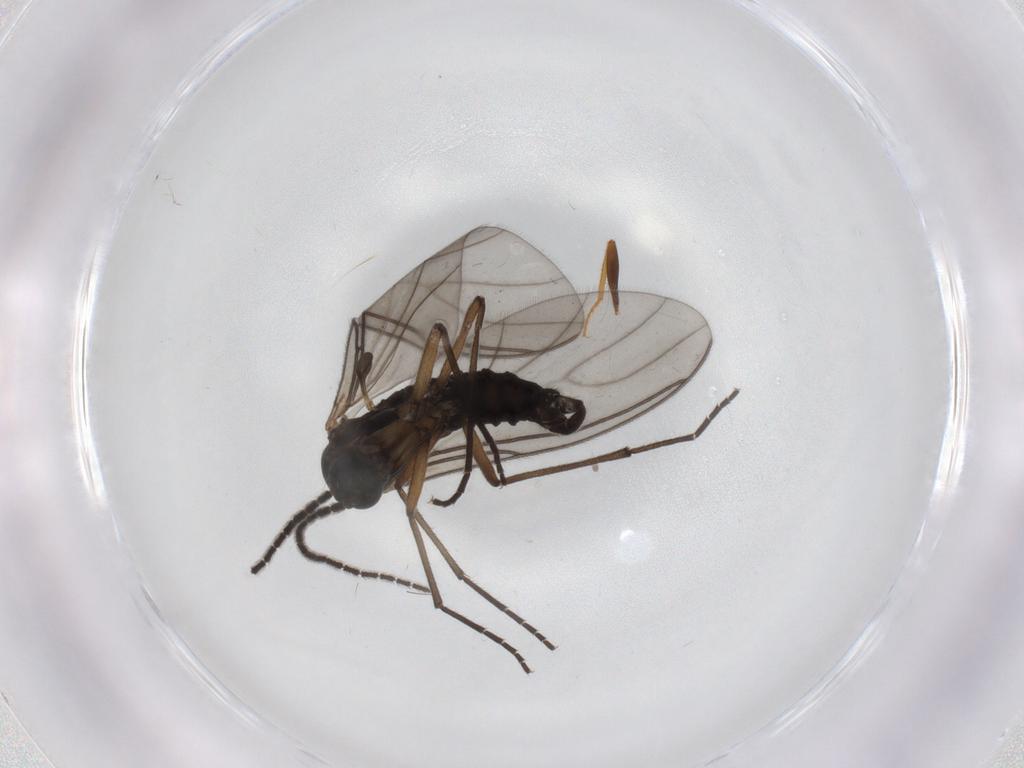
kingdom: Animalia
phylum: Arthropoda
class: Insecta
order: Diptera
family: Sciaridae
